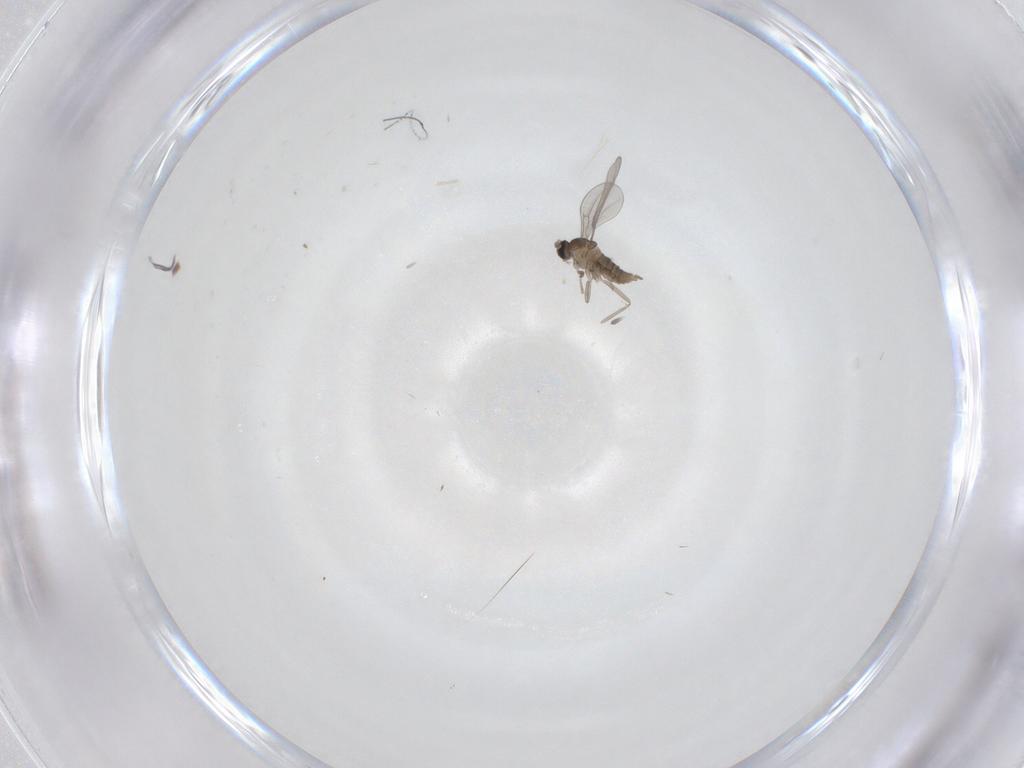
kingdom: Animalia
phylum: Arthropoda
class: Insecta
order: Diptera
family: Cecidomyiidae
